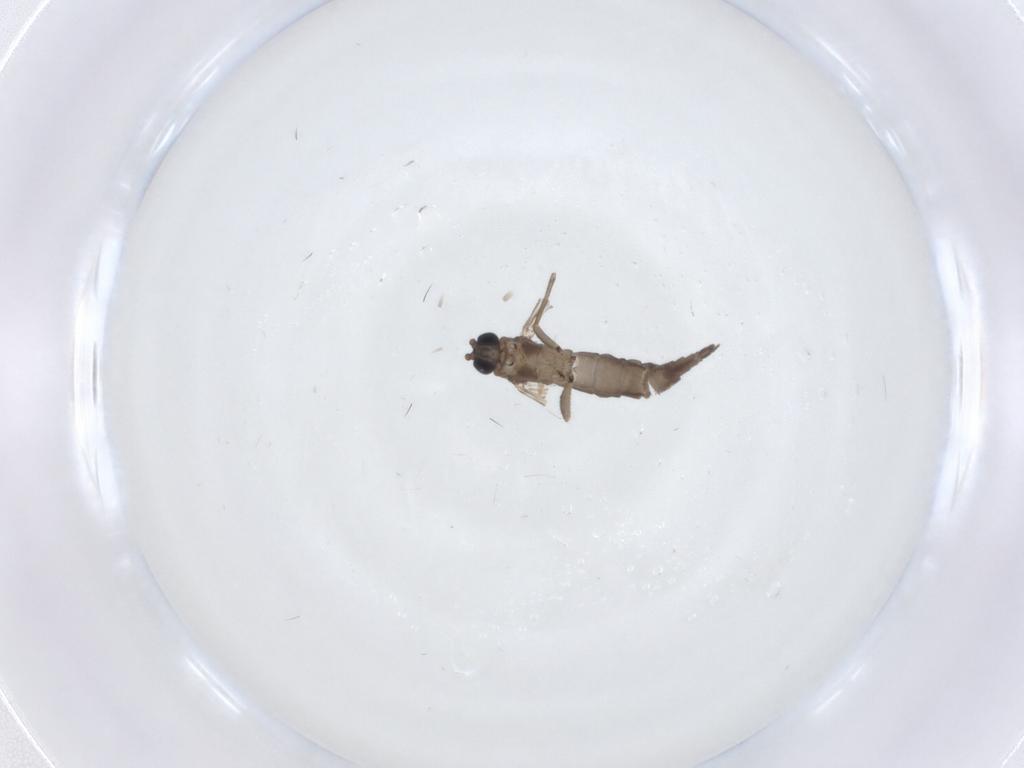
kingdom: Animalia
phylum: Arthropoda
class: Insecta
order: Diptera
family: Sciaridae
